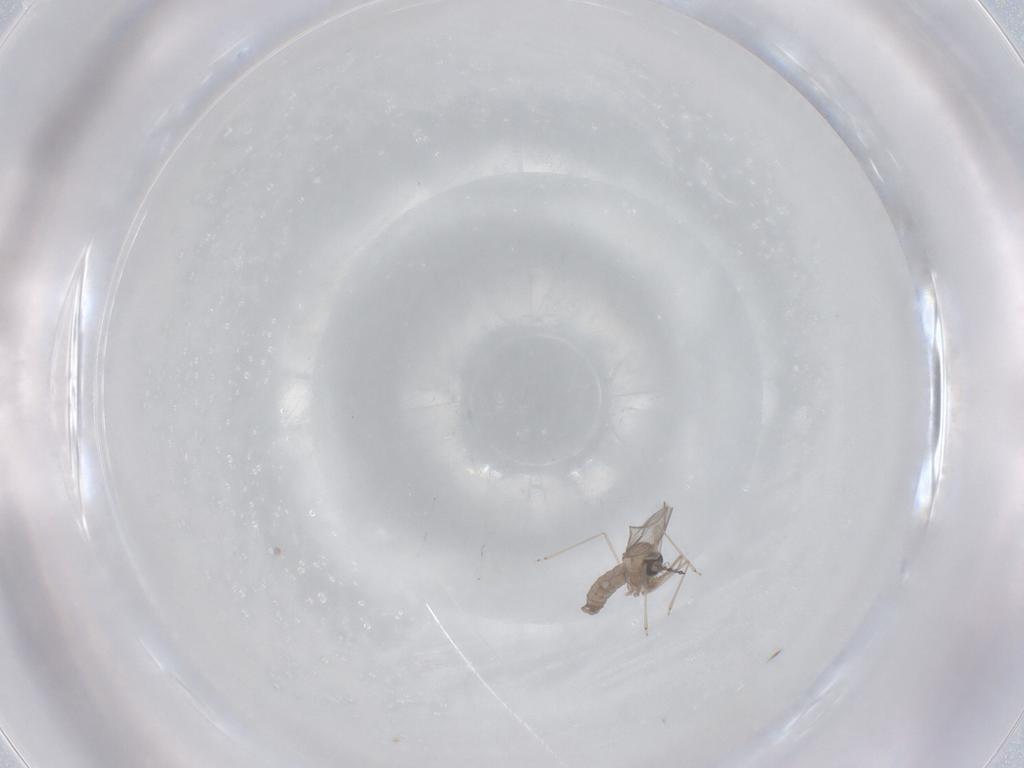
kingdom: Animalia
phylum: Arthropoda
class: Insecta
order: Diptera
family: Cecidomyiidae
